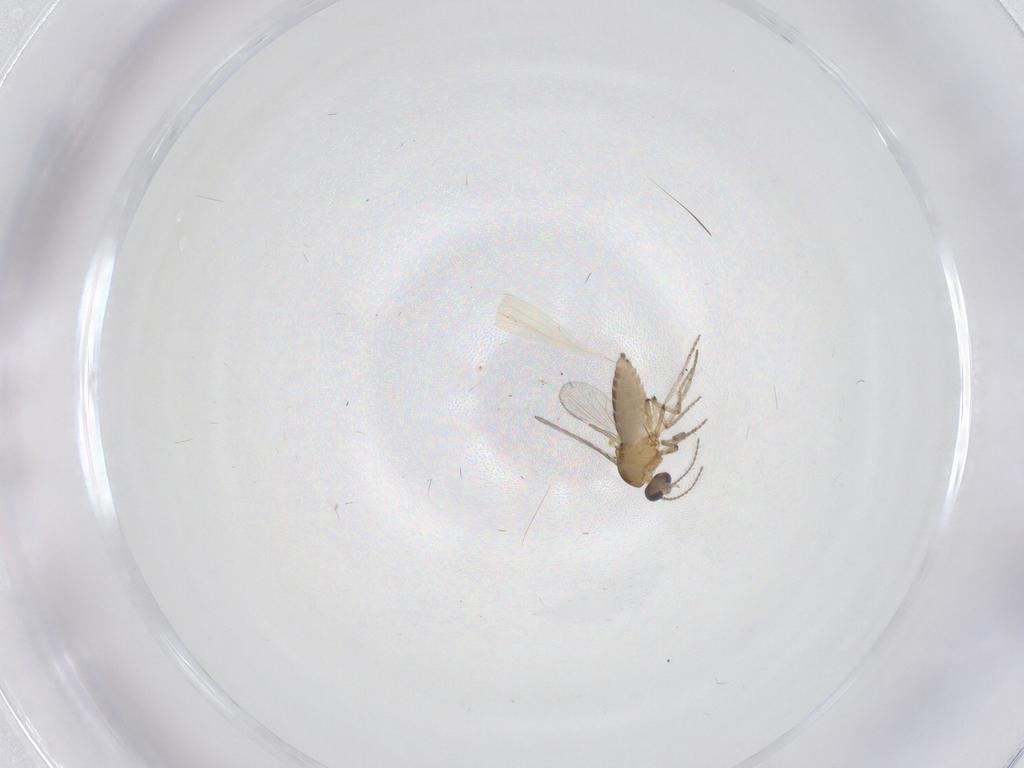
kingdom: Animalia
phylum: Arthropoda
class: Insecta
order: Diptera
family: Ceratopogonidae
